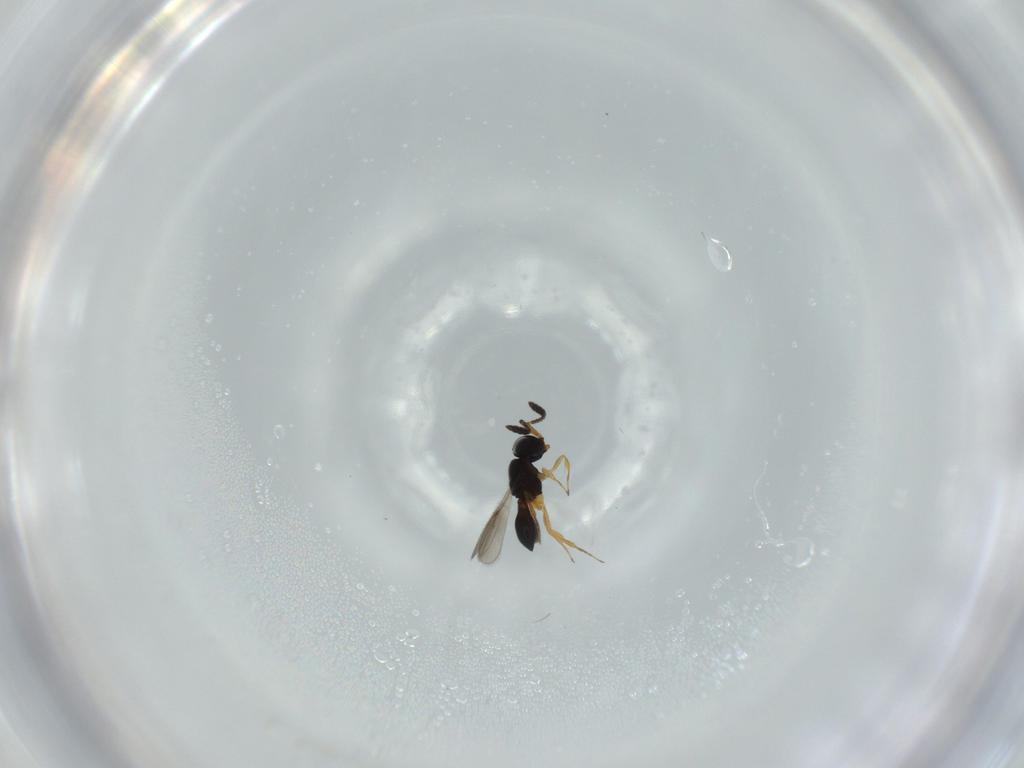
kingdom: Animalia
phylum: Arthropoda
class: Insecta
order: Hymenoptera
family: Scelionidae
